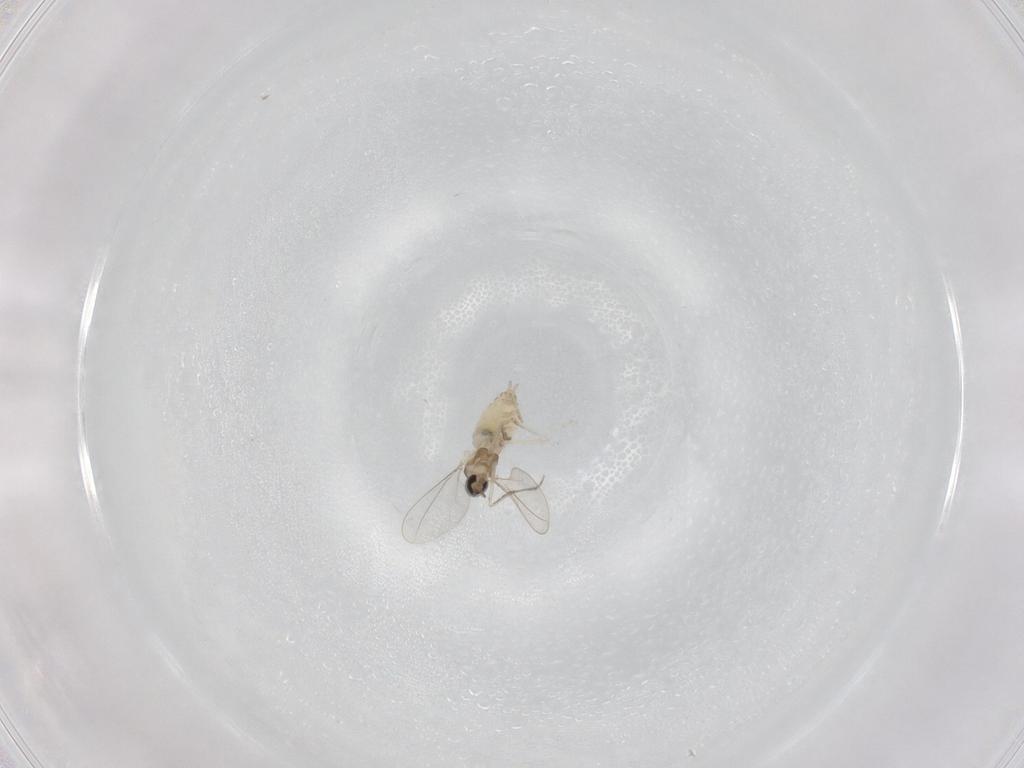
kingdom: Animalia
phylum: Arthropoda
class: Insecta
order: Diptera
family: Cecidomyiidae
